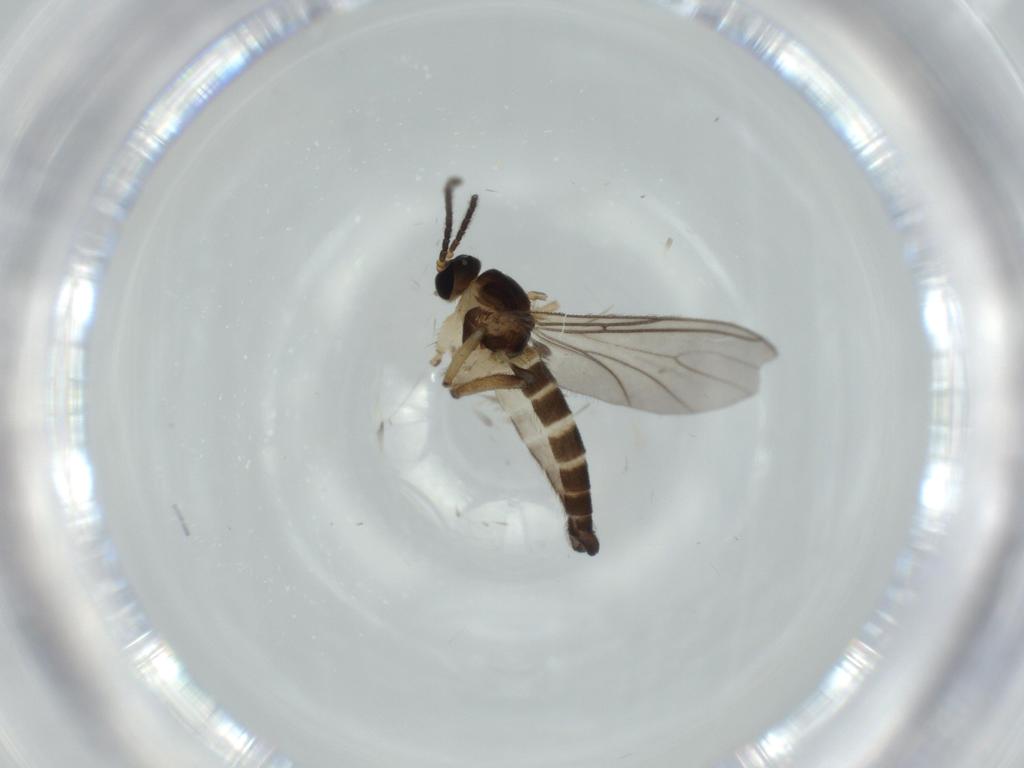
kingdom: Animalia
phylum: Arthropoda
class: Insecta
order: Diptera
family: Sciaridae
